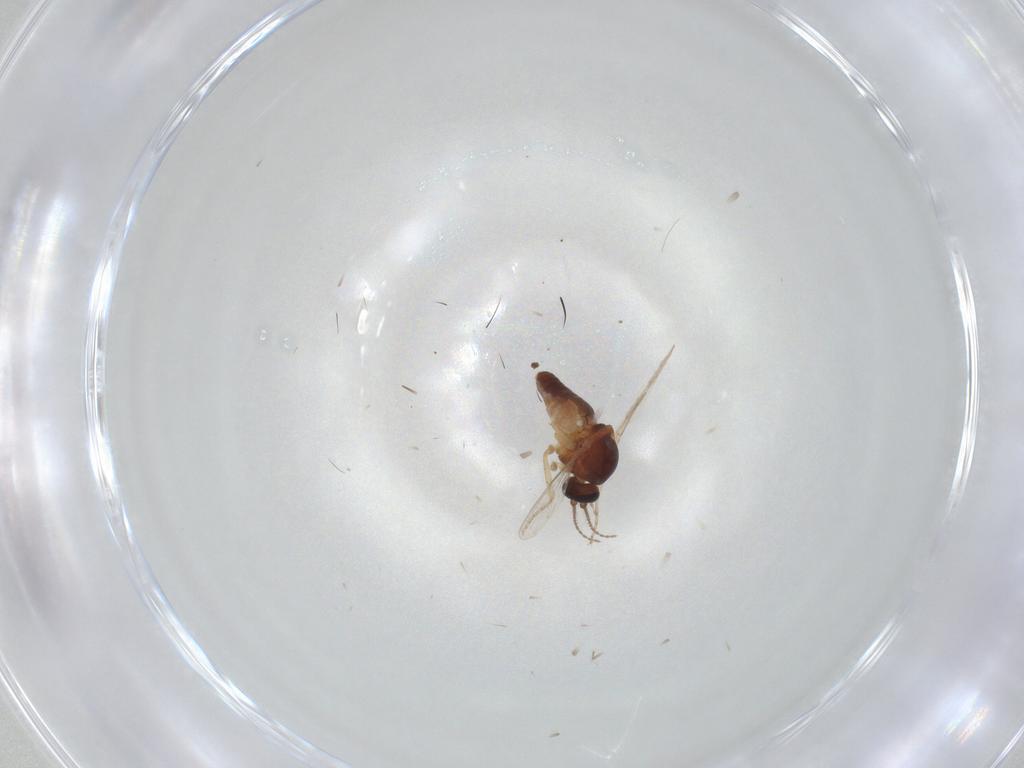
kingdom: Animalia
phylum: Arthropoda
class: Insecta
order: Diptera
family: Ceratopogonidae
